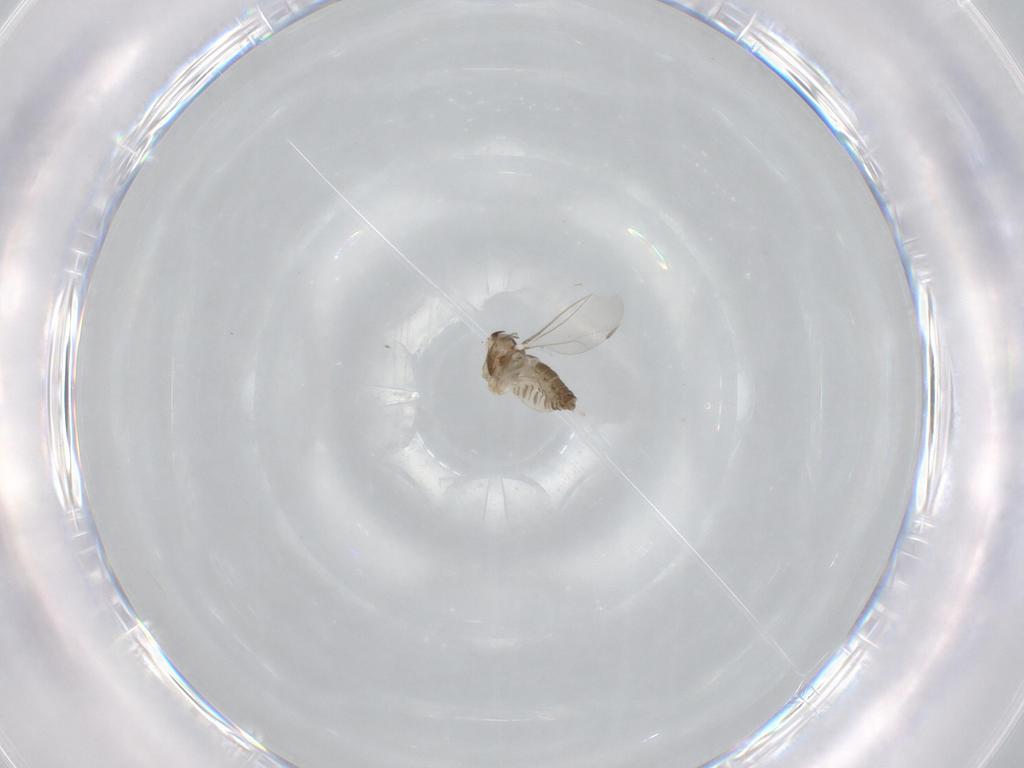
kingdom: Animalia
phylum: Arthropoda
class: Insecta
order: Diptera
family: Cecidomyiidae
